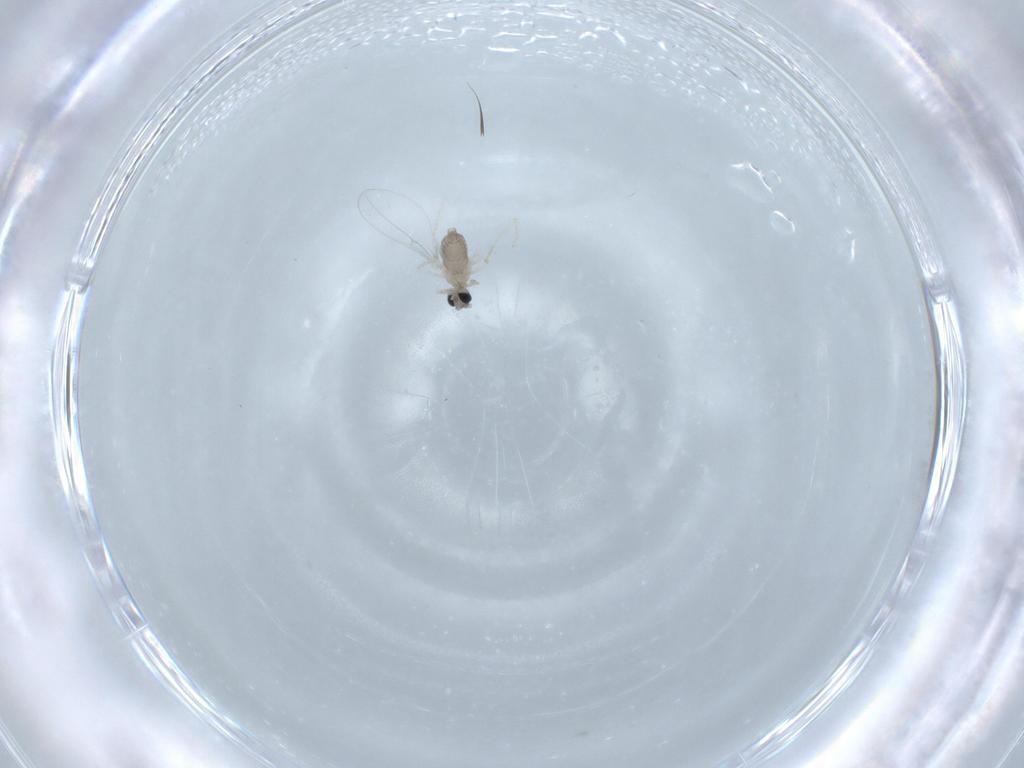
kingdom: Animalia
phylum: Arthropoda
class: Insecta
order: Diptera
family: Cecidomyiidae
